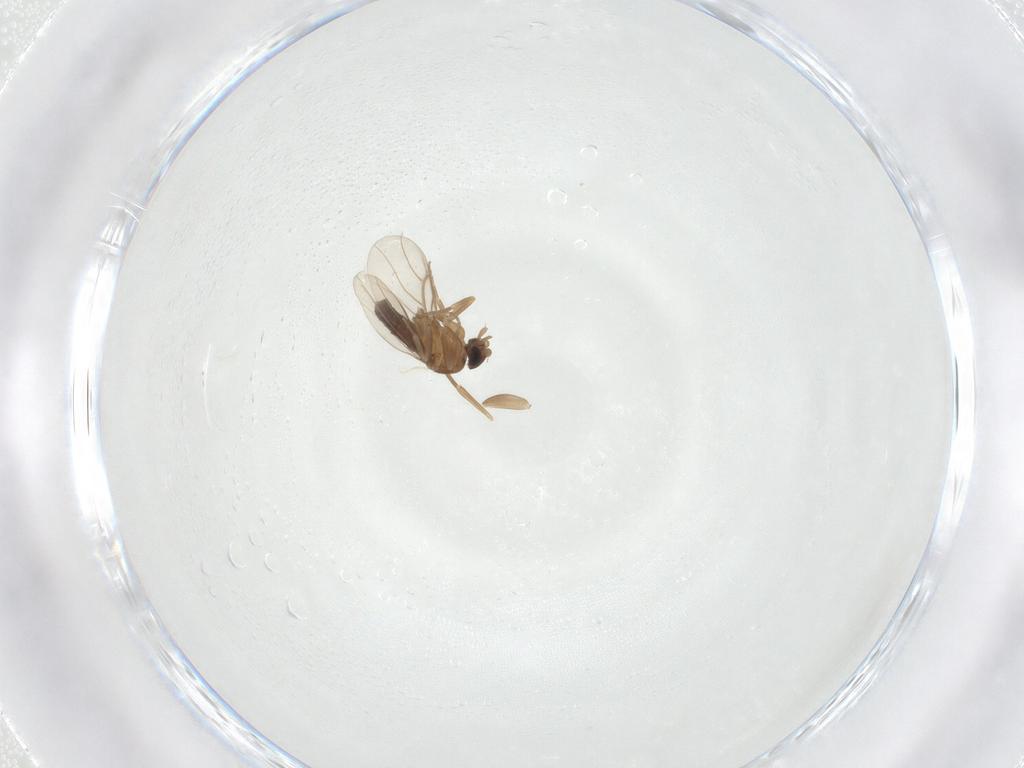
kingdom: Animalia
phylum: Arthropoda
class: Insecta
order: Diptera
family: Phoridae
